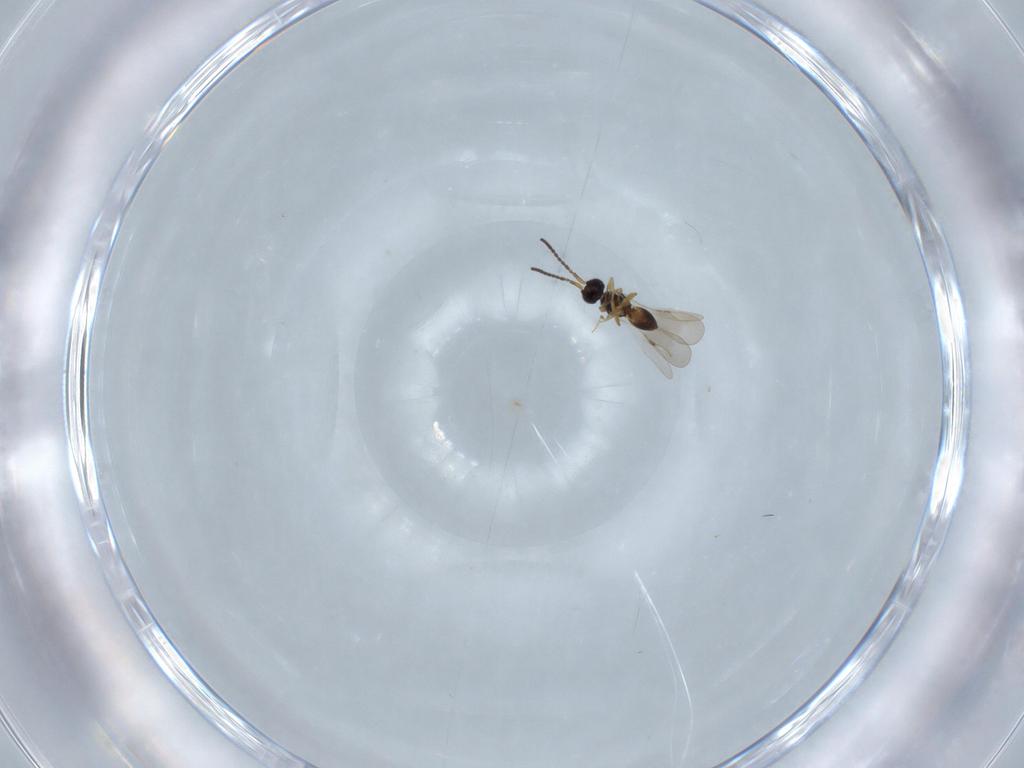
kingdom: Animalia
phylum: Arthropoda
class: Insecta
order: Hymenoptera
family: Ceraphronidae
